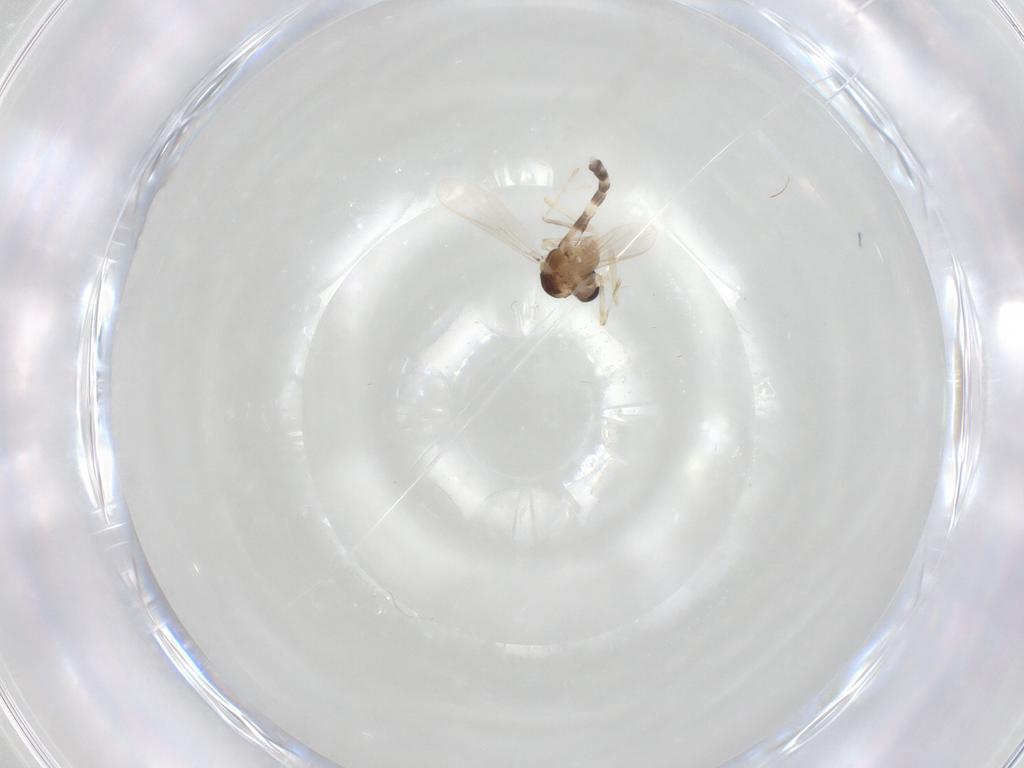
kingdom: Animalia
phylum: Arthropoda
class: Insecta
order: Diptera
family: Chironomidae
